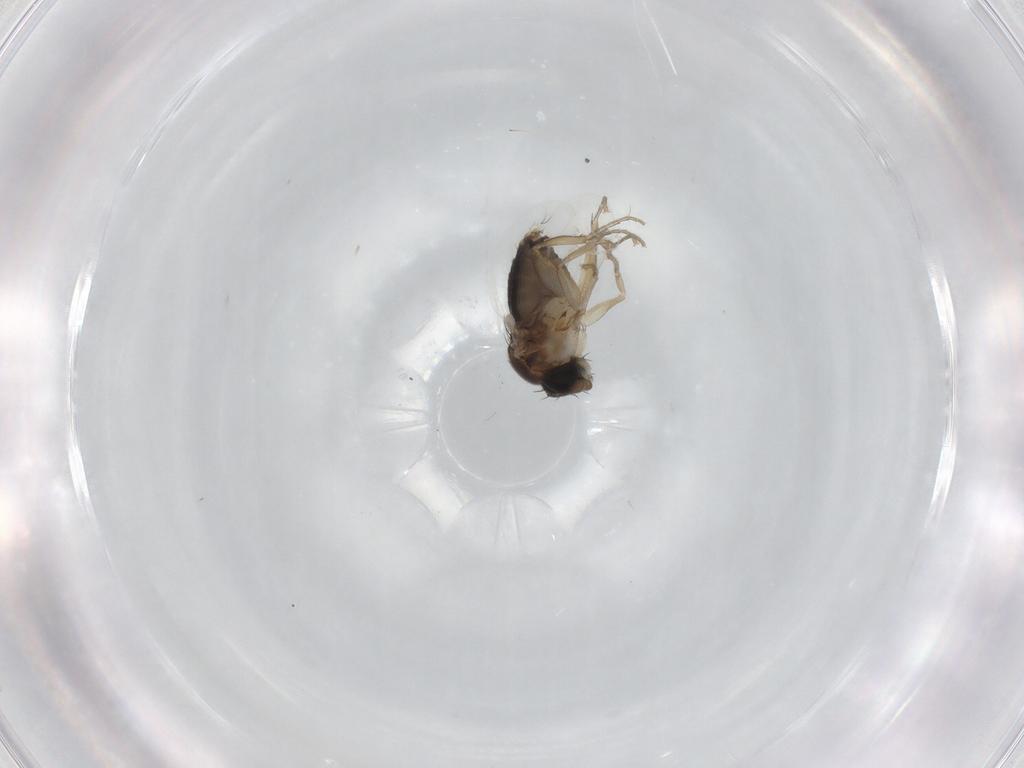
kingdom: Animalia
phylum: Arthropoda
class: Insecta
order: Diptera
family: Phoridae
